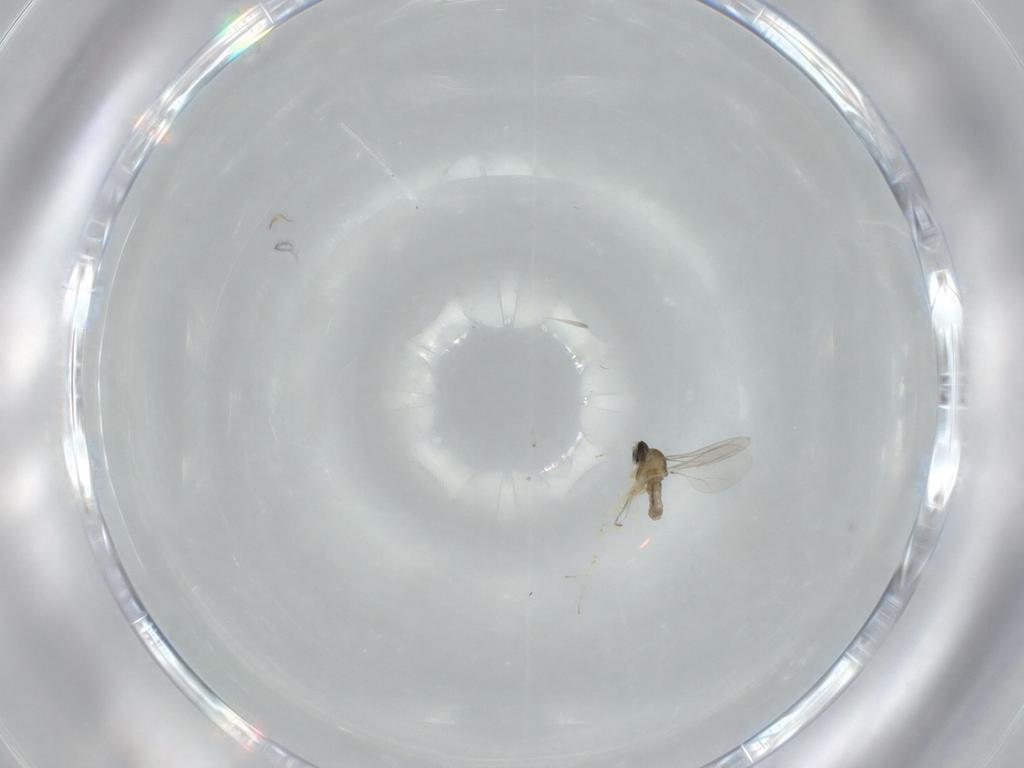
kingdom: Animalia
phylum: Arthropoda
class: Insecta
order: Diptera
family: Cecidomyiidae
